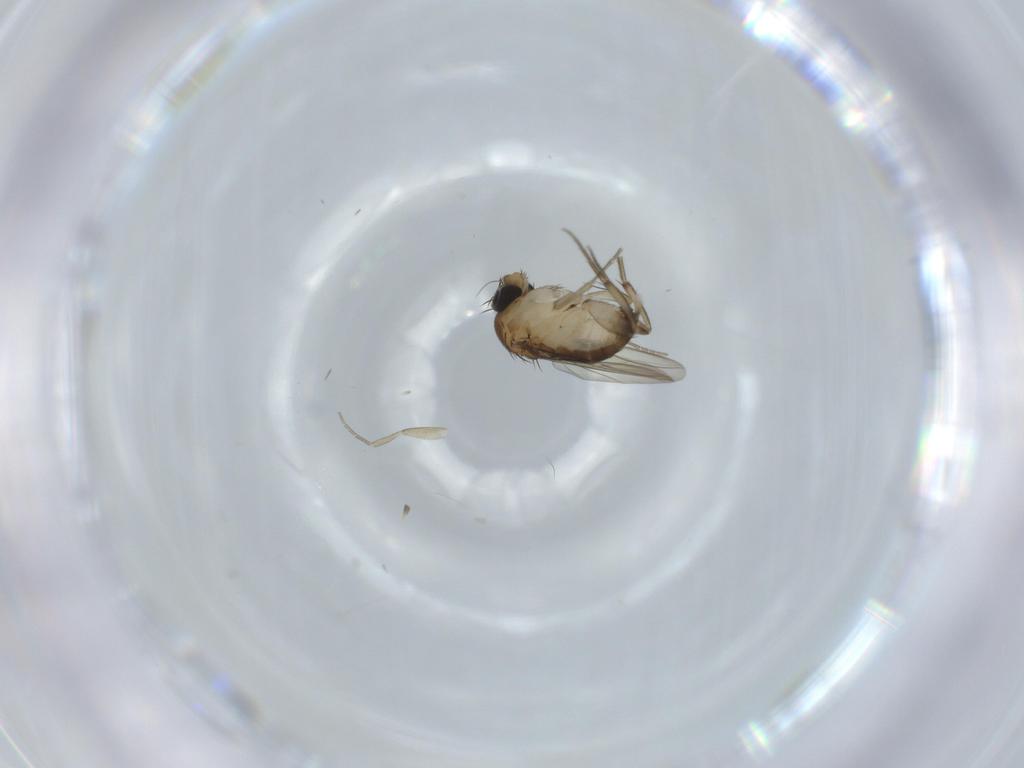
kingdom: Animalia
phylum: Arthropoda
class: Insecta
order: Diptera
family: Phoridae
